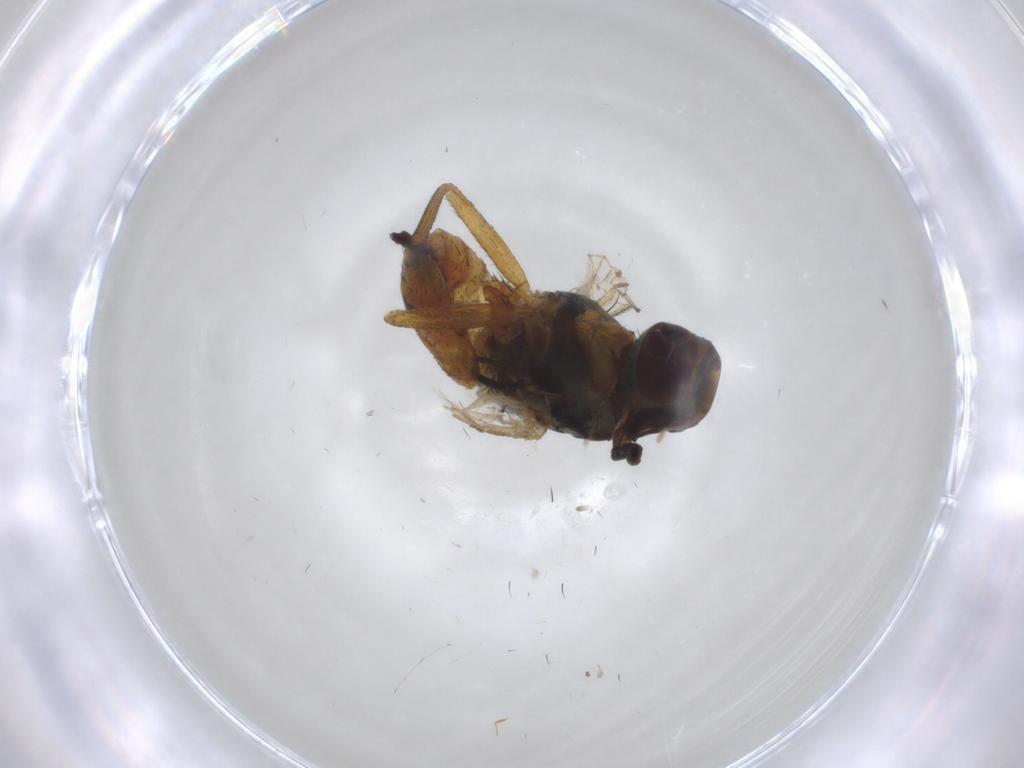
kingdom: Animalia
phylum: Arthropoda
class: Insecta
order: Diptera
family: Muscidae
